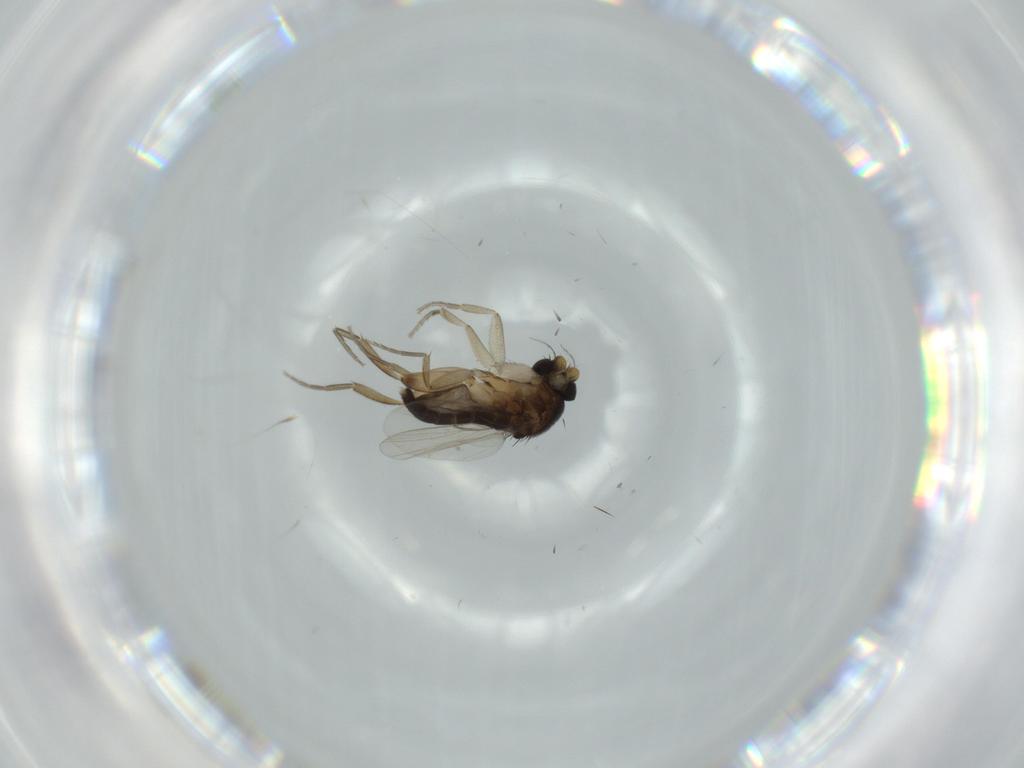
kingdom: Animalia
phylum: Arthropoda
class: Insecta
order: Diptera
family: Phoridae
